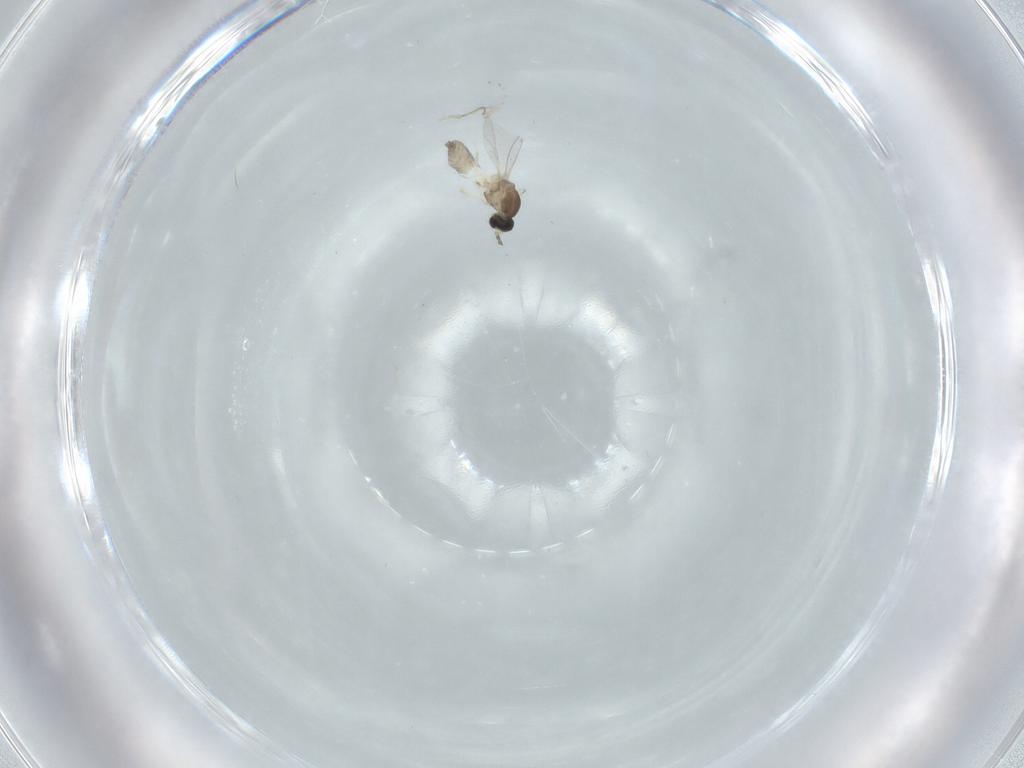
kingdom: Animalia
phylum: Arthropoda
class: Insecta
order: Diptera
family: Cecidomyiidae
